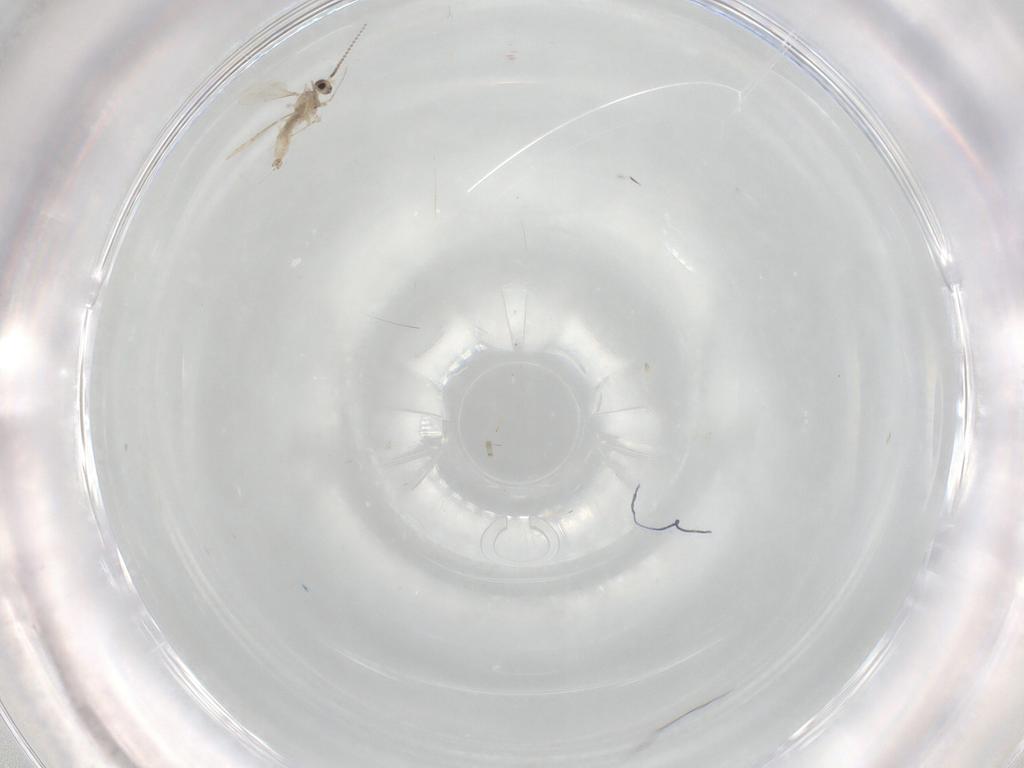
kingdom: Animalia
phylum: Arthropoda
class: Insecta
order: Diptera
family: Cecidomyiidae
